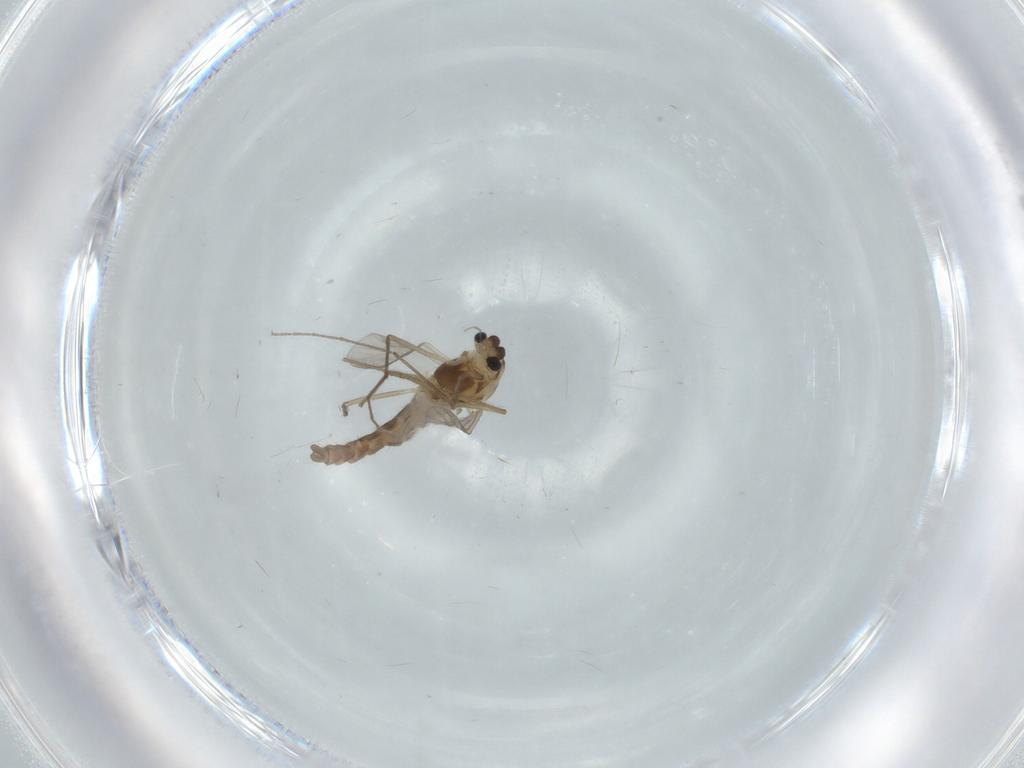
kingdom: Animalia
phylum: Arthropoda
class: Insecta
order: Diptera
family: Chironomidae
